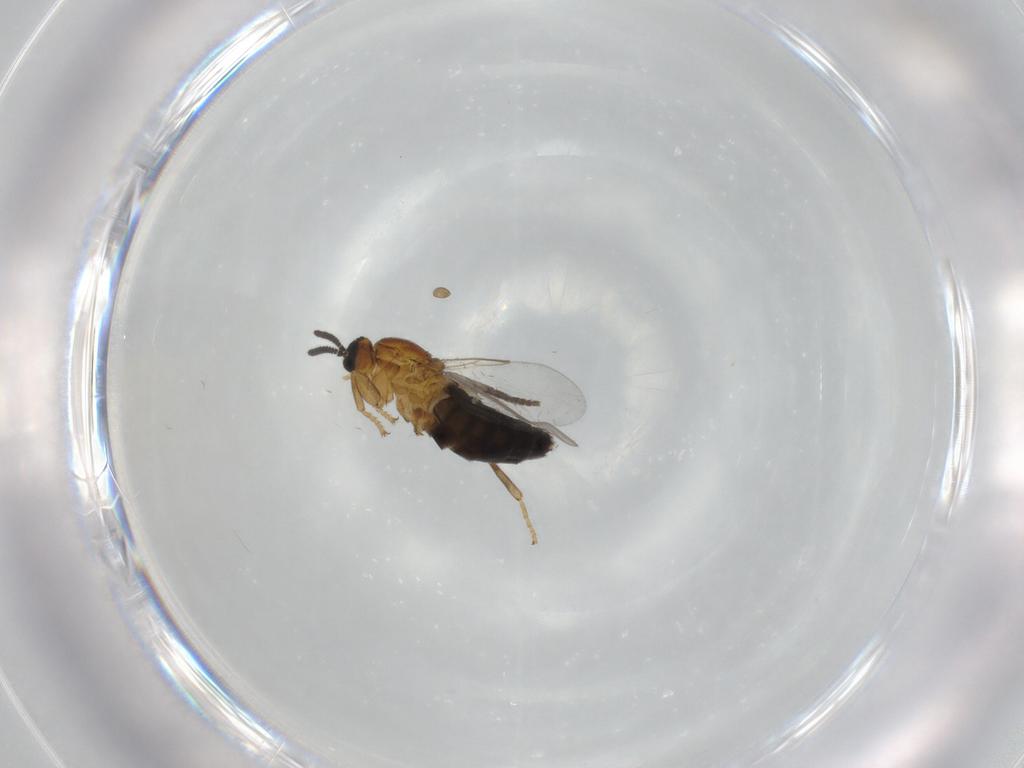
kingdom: Animalia
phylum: Arthropoda
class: Insecta
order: Diptera
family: Scatopsidae
